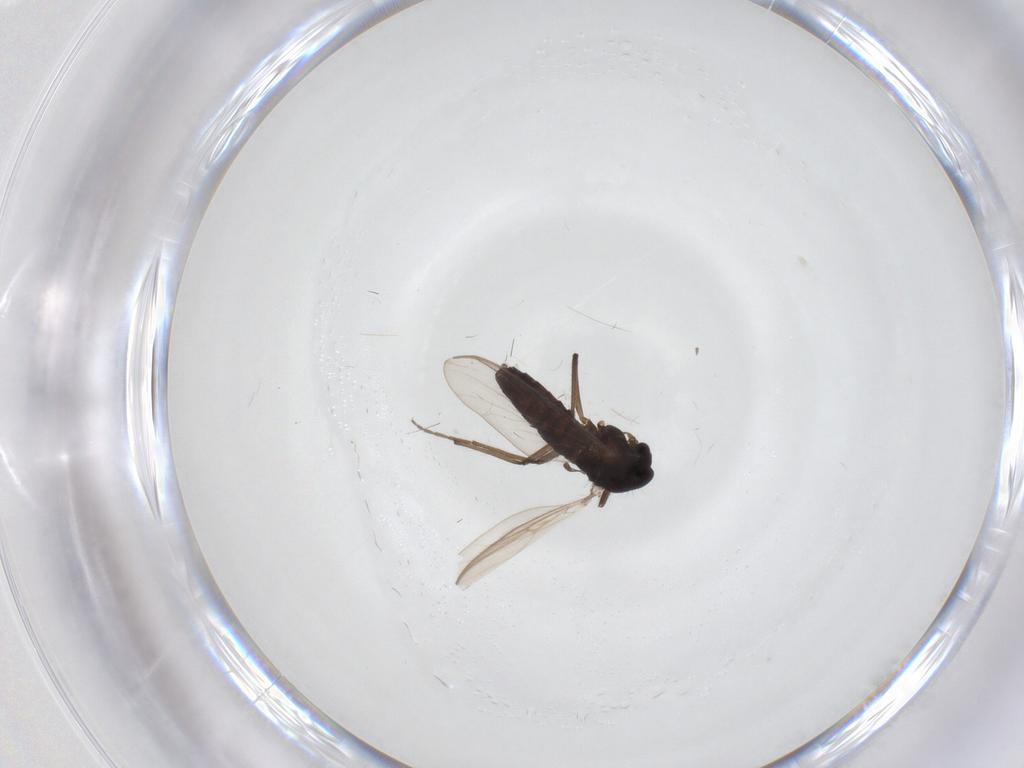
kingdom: Animalia
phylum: Arthropoda
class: Insecta
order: Diptera
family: Chironomidae
